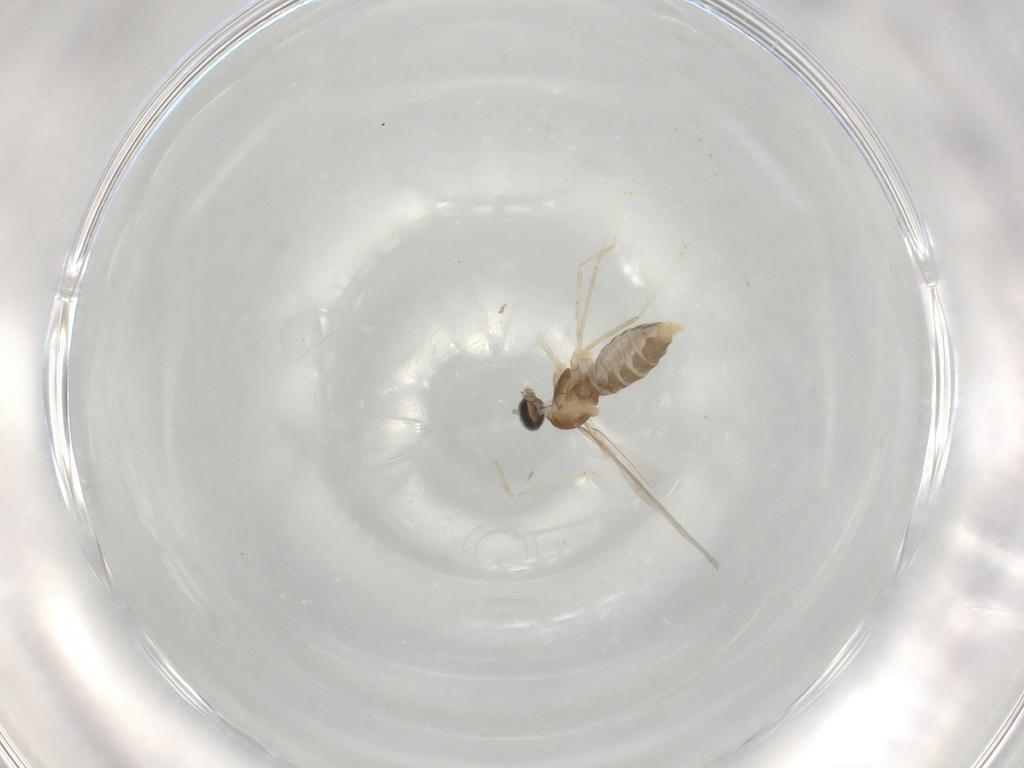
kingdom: Animalia
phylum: Arthropoda
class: Insecta
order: Diptera
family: Cecidomyiidae
